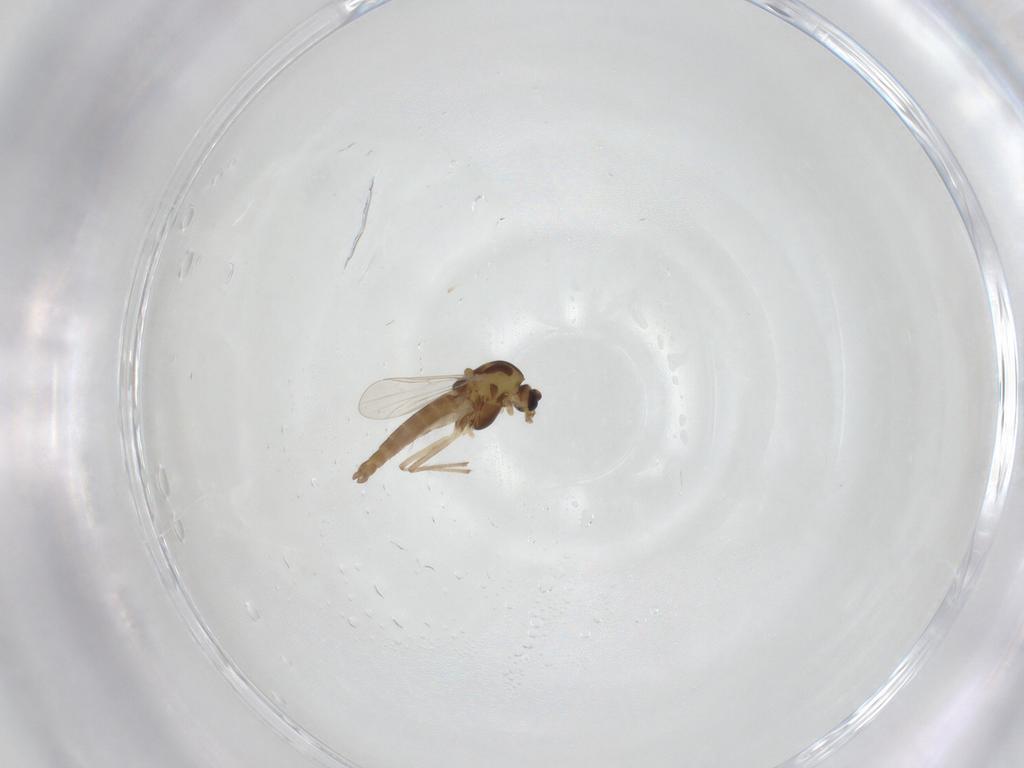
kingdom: Animalia
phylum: Arthropoda
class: Insecta
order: Diptera
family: Chironomidae
